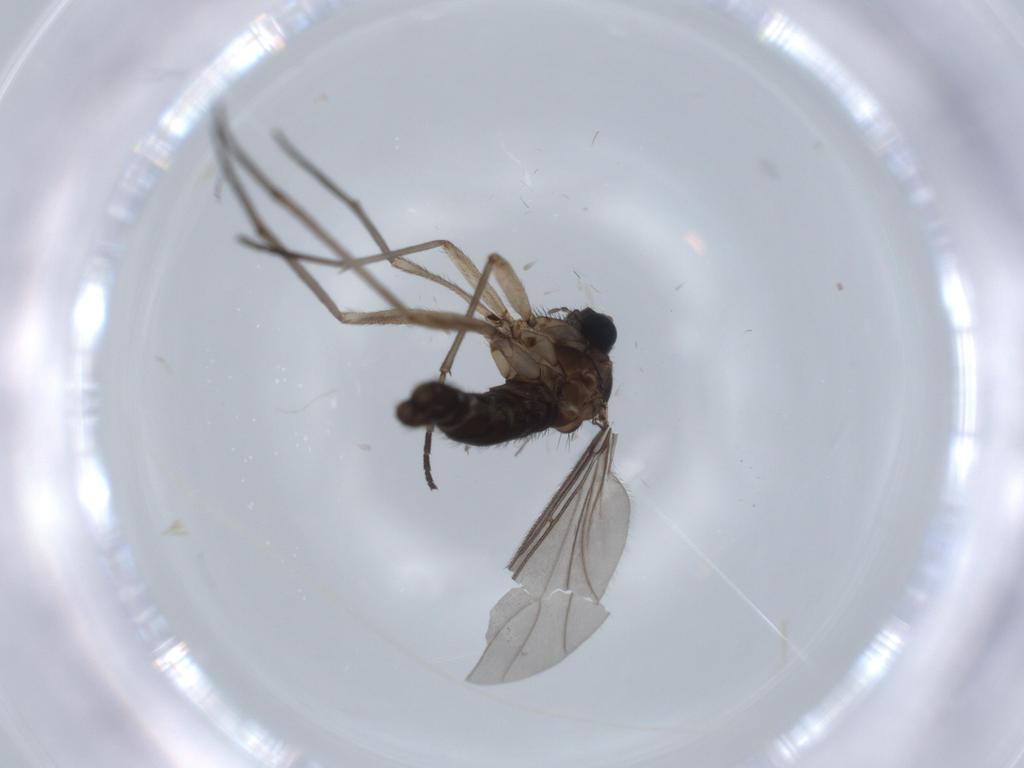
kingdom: Animalia
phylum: Arthropoda
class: Insecta
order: Diptera
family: Sciaridae
